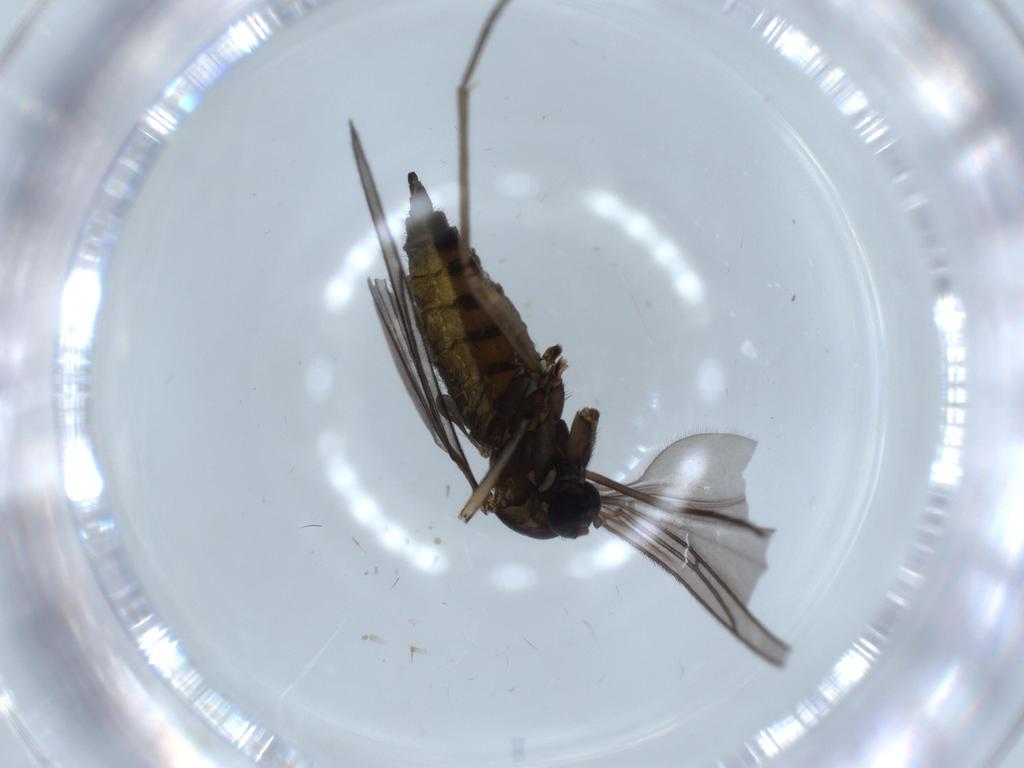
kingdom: Animalia
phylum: Arthropoda
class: Insecta
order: Diptera
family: Sciaridae
